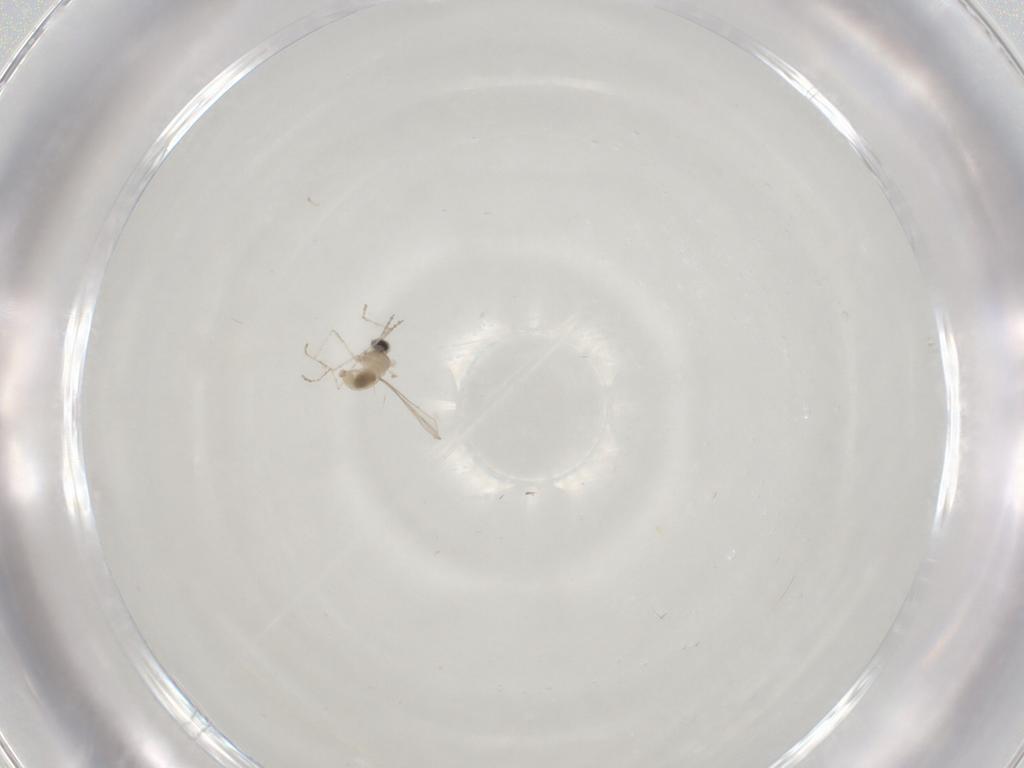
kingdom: Animalia
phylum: Arthropoda
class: Insecta
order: Diptera
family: Cecidomyiidae
